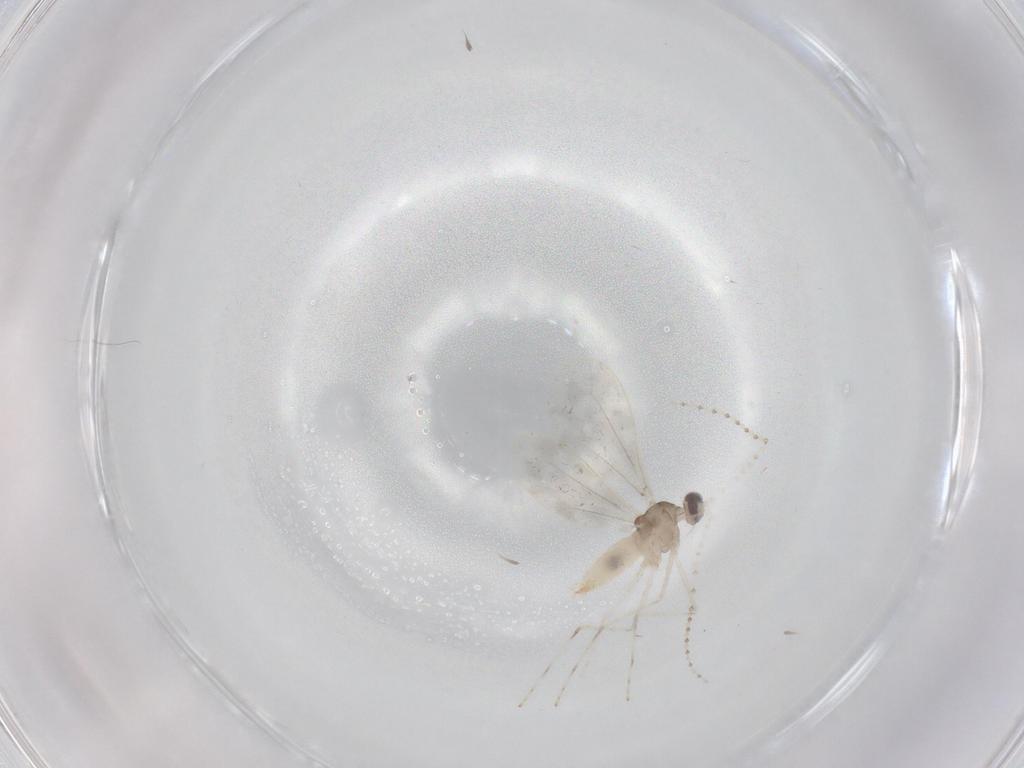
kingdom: Animalia
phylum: Arthropoda
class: Insecta
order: Diptera
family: Cecidomyiidae
